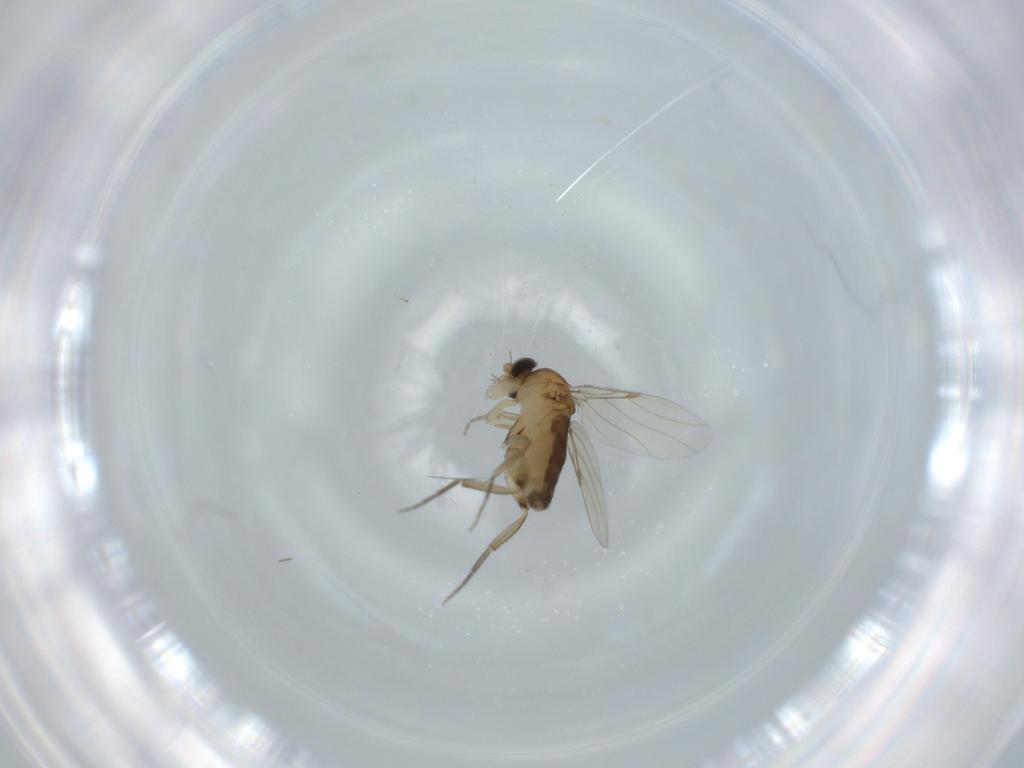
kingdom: Animalia
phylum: Arthropoda
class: Insecta
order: Diptera
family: Phoridae
